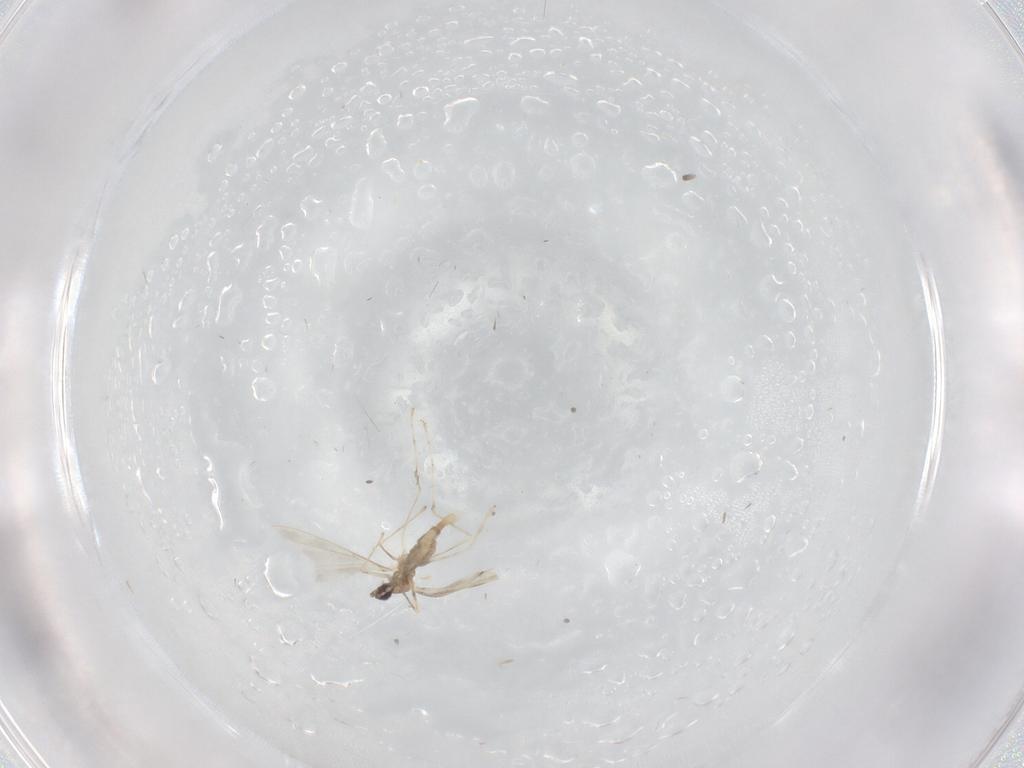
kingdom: Animalia
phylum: Arthropoda
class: Insecta
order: Diptera
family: Cecidomyiidae
